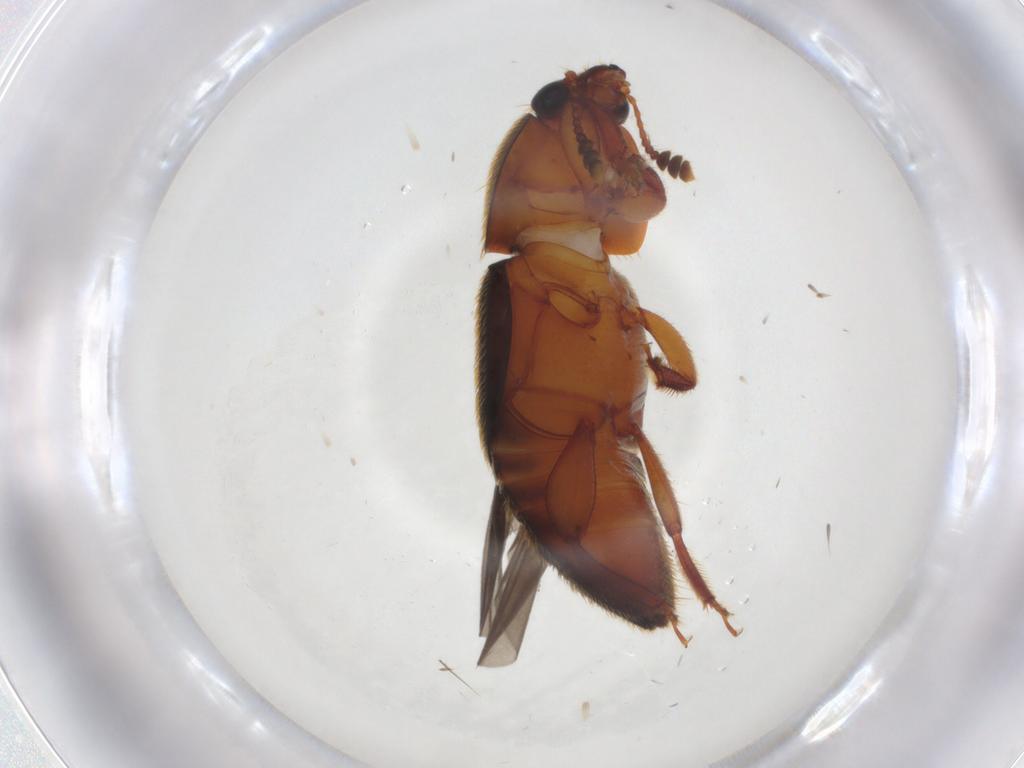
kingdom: Animalia
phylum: Arthropoda
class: Insecta
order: Coleoptera
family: Nitidulidae
